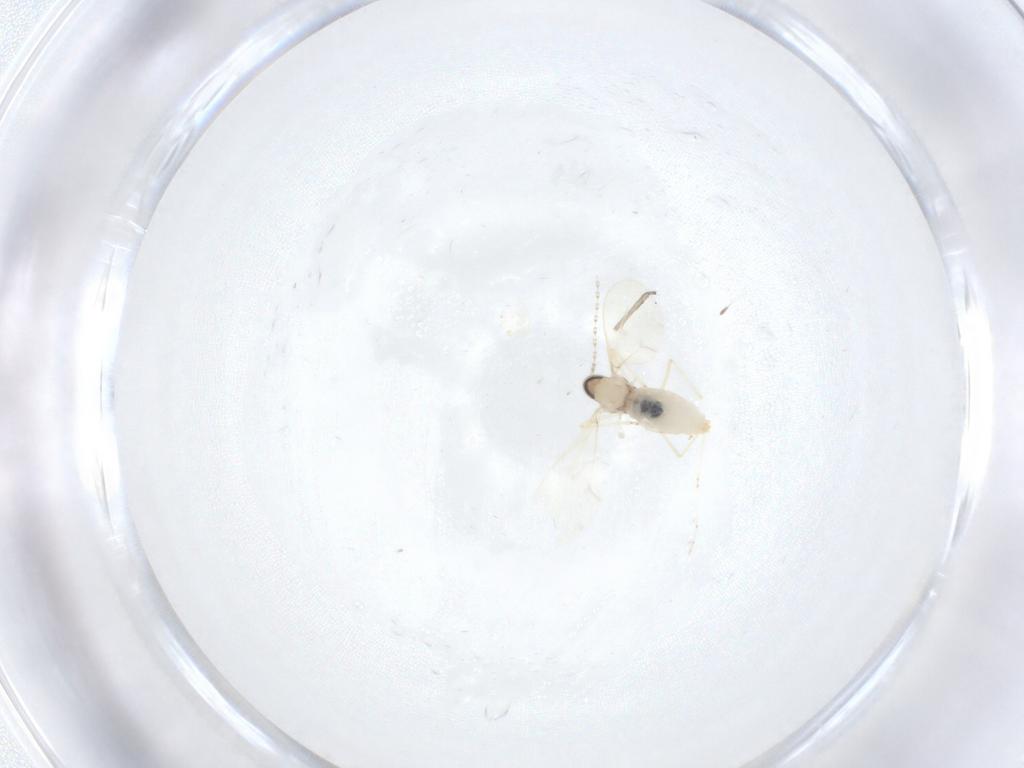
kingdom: Animalia
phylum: Arthropoda
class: Insecta
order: Diptera
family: Cecidomyiidae
